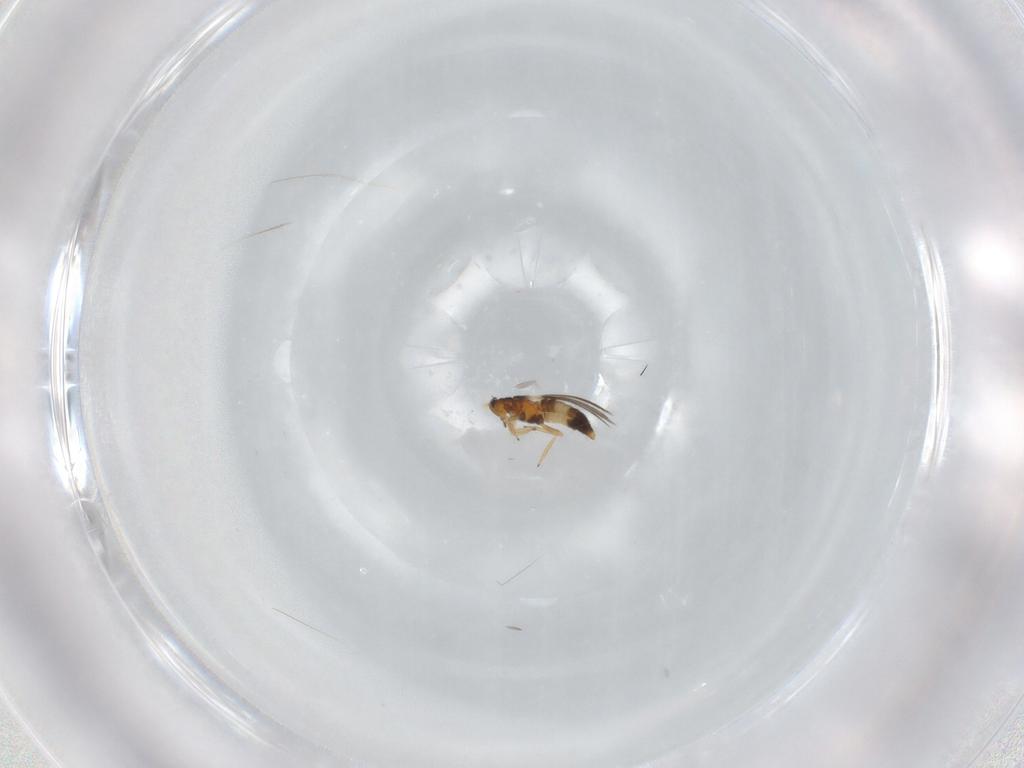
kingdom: Animalia
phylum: Arthropoda
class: Insecta
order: Thysanoptera
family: Thripidae
